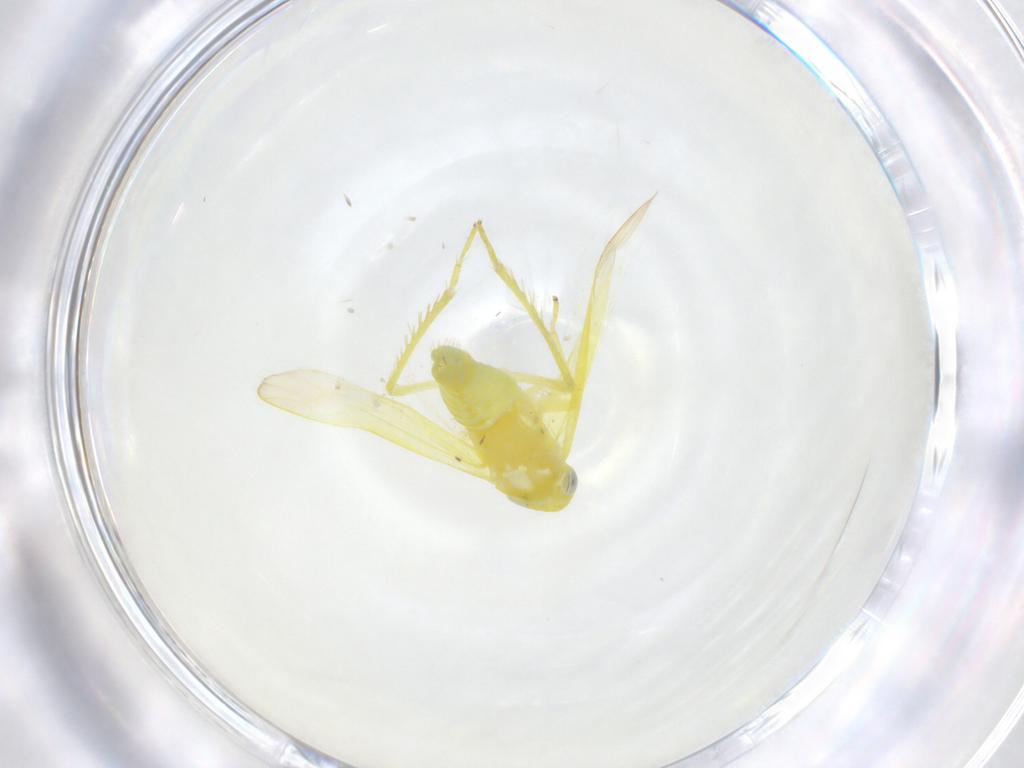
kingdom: Animalia
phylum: Arthropoda
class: Insecta
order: Hemiptera
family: Cicadellidae
